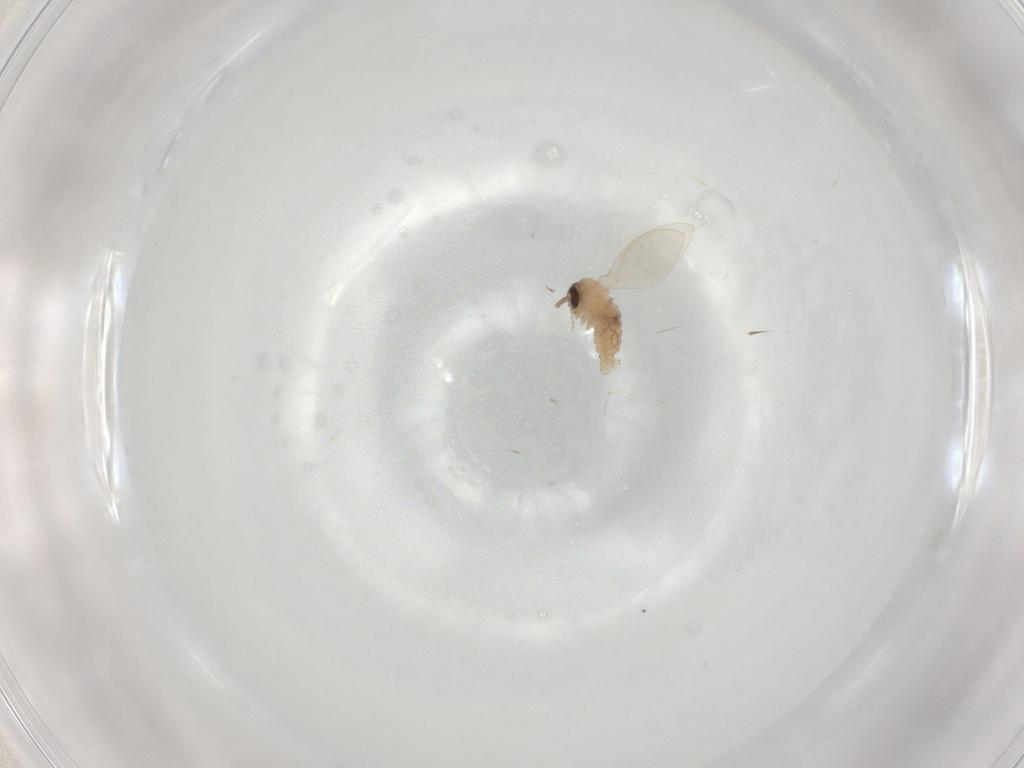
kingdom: Animalia
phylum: Arthropoda
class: Insecta
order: Diptera
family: Psychodidae
